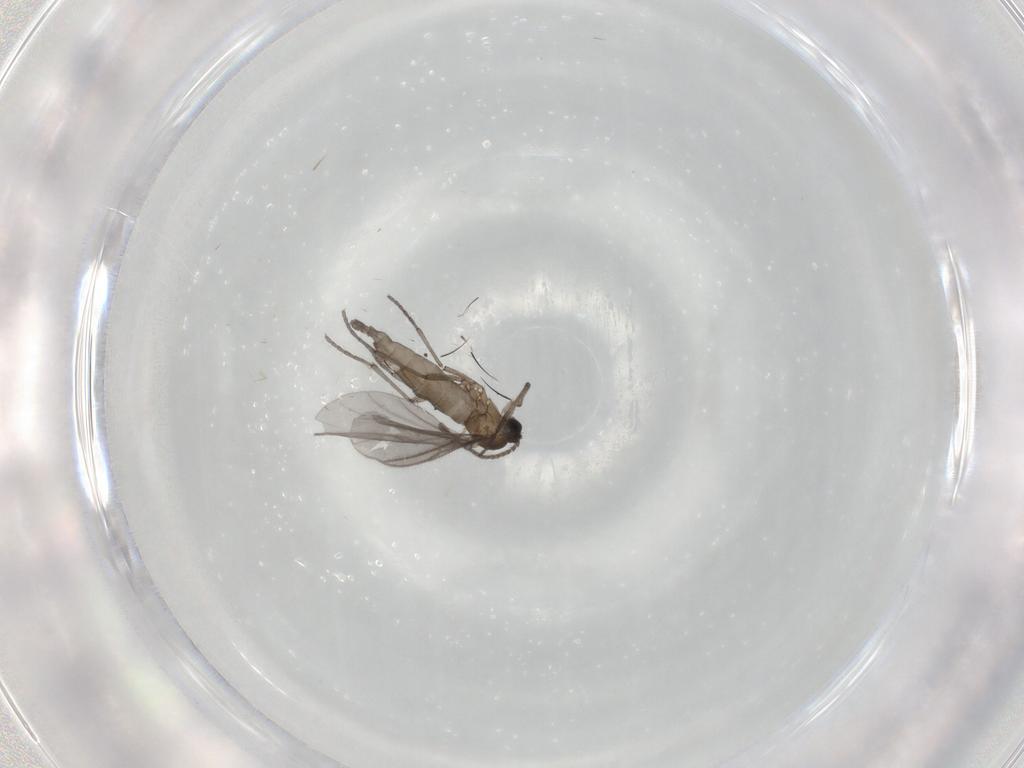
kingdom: Animalia
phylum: Arthropoda
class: Insecta
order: Diptera
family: Sciaridae
